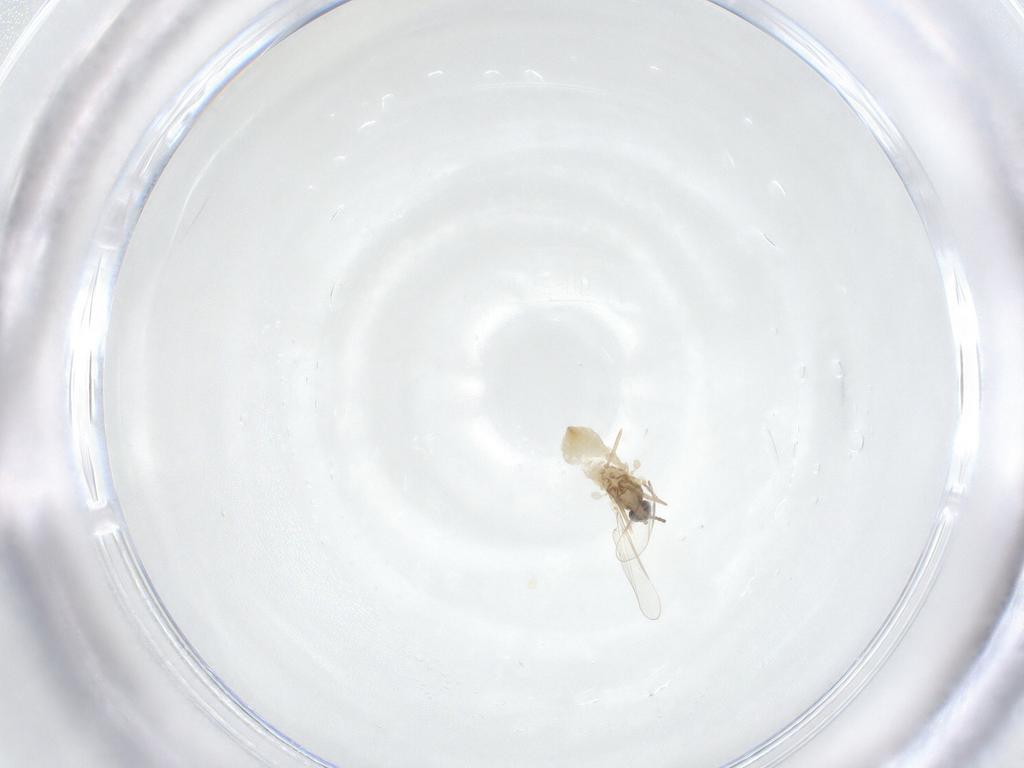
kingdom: Animalia
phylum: Arthropoda
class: Insecta
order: Diptera
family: Cecidomyiidae
